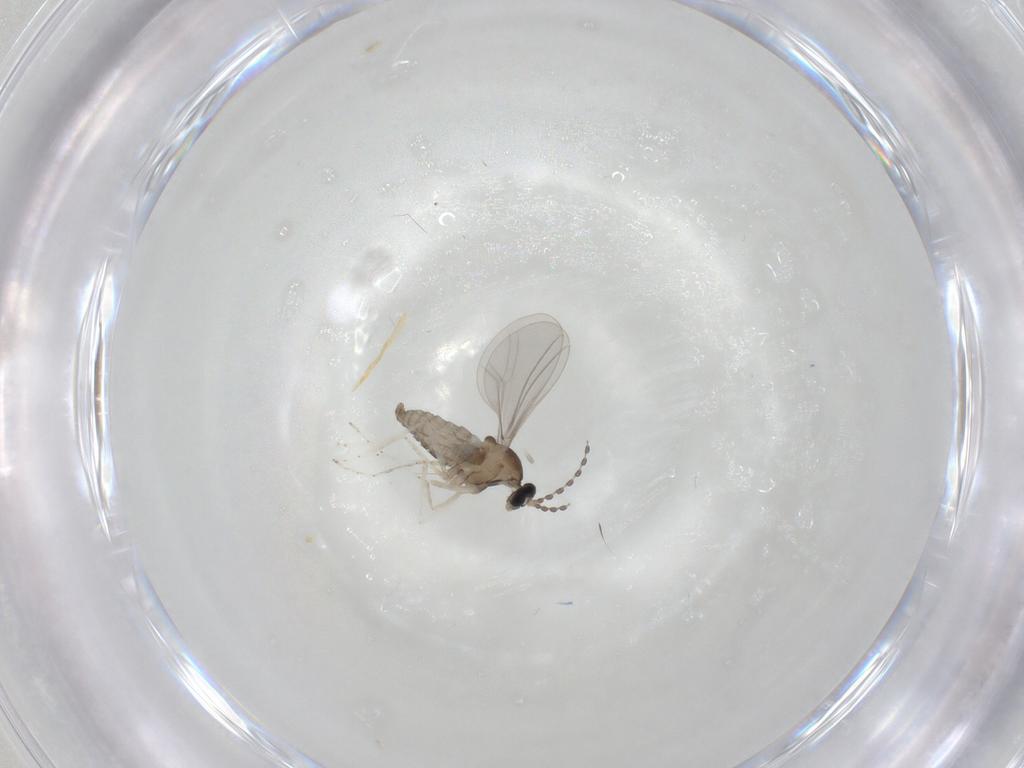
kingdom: Animalia
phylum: Arthropoda
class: Insecta
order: Diptera
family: Cecidomyiidae
